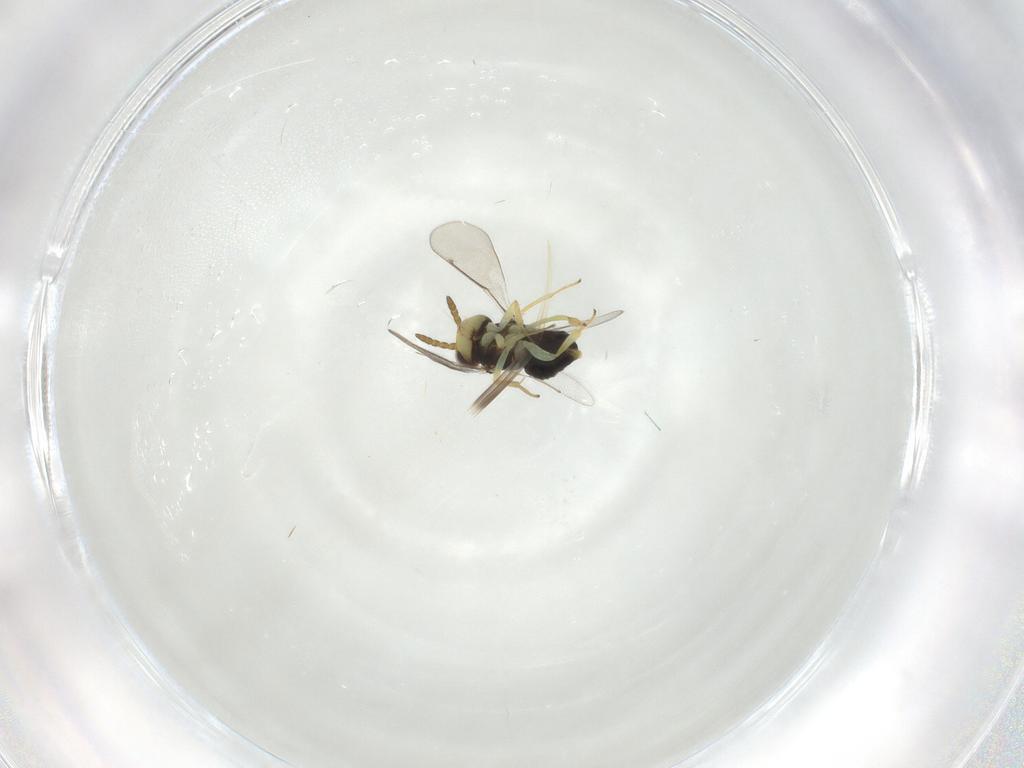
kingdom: Animalia
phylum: Arthropoda
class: Insecta
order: Hymenoptera
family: Aphelinidae
